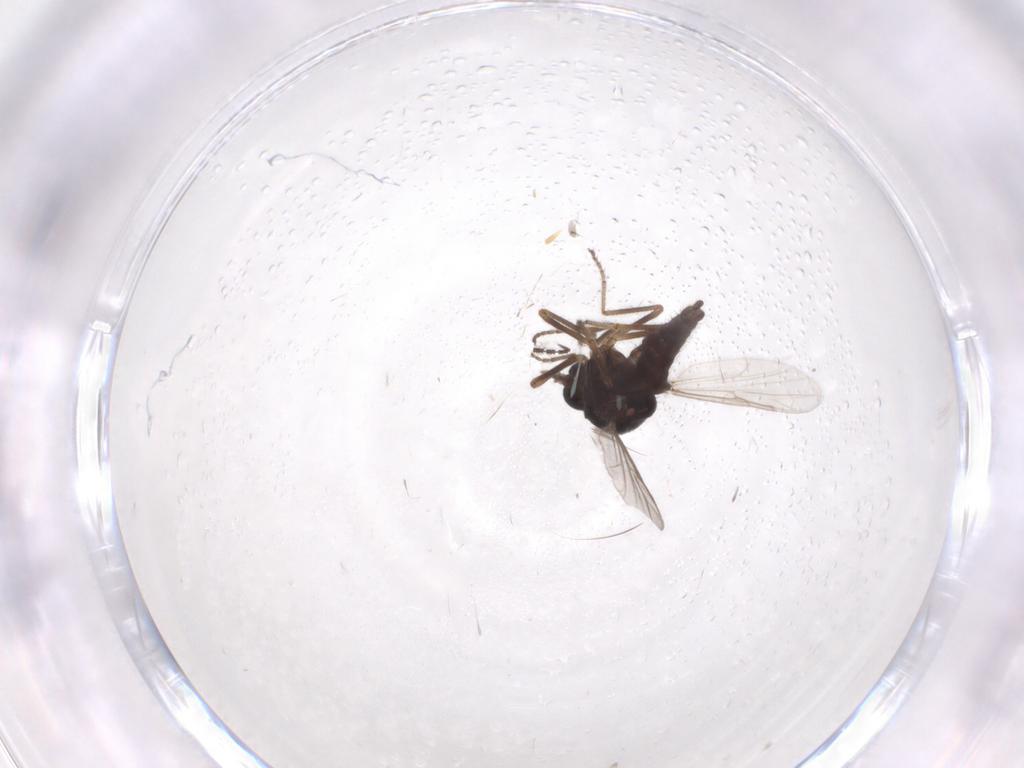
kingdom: Animalia
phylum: Arthropoda
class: Insecta
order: Diptera
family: Ceratopogonidae
